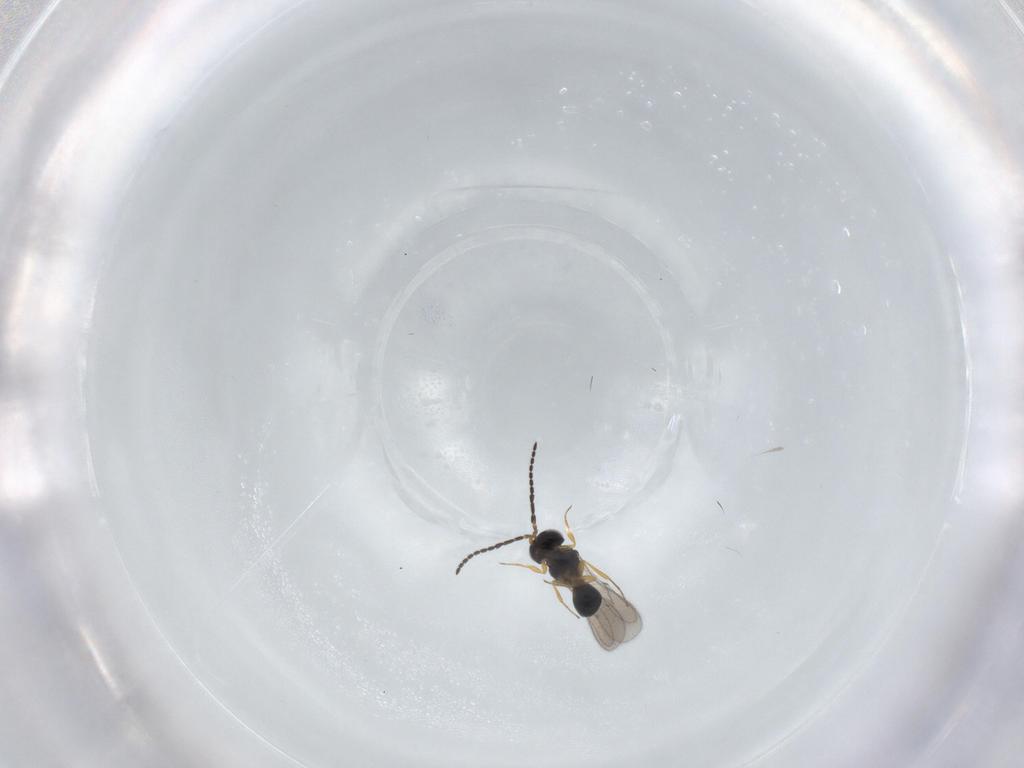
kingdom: Animalia
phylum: Arthropoda
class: Insecta
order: Hymenoptera
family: Scelionidae
